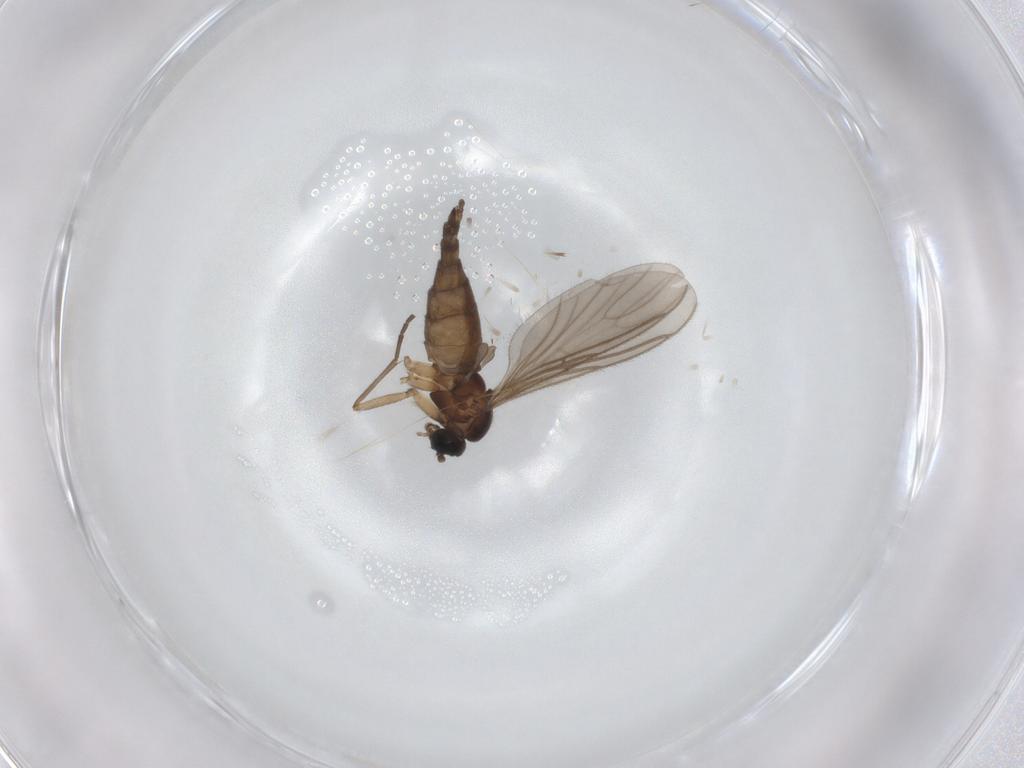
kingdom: Animalia
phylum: Arthropoda
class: Insecta
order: Diptera
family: Sciaridae
